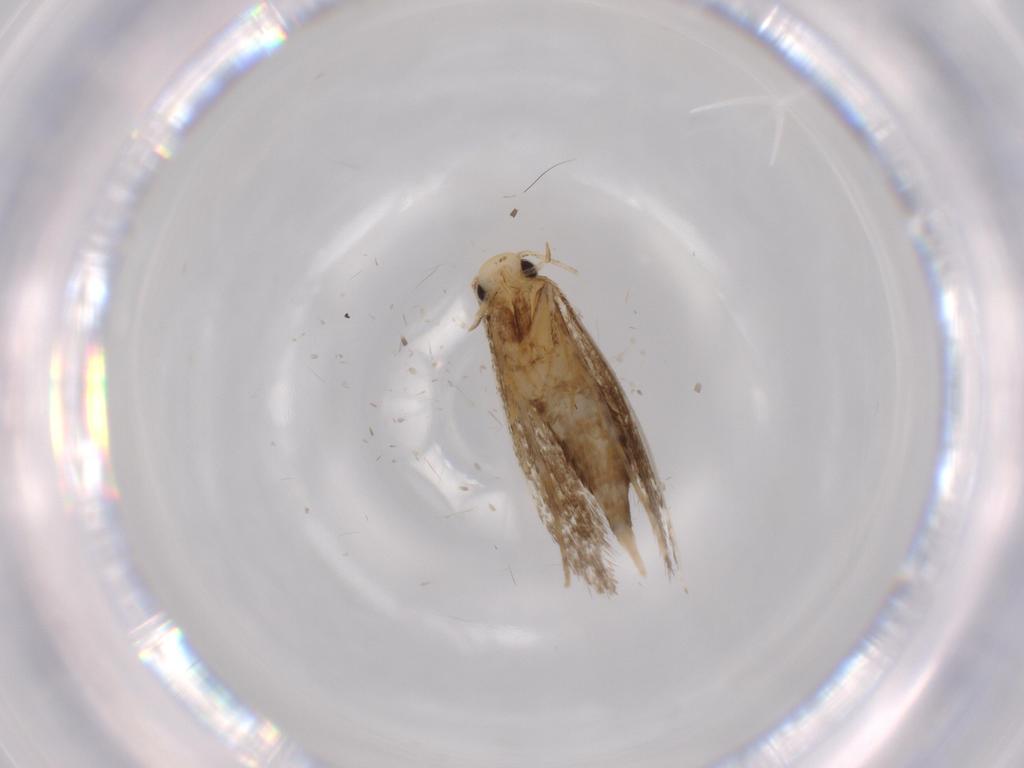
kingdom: Animalia
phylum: Arthropoda
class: Insecta
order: Lepidoptera
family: Tineidae
